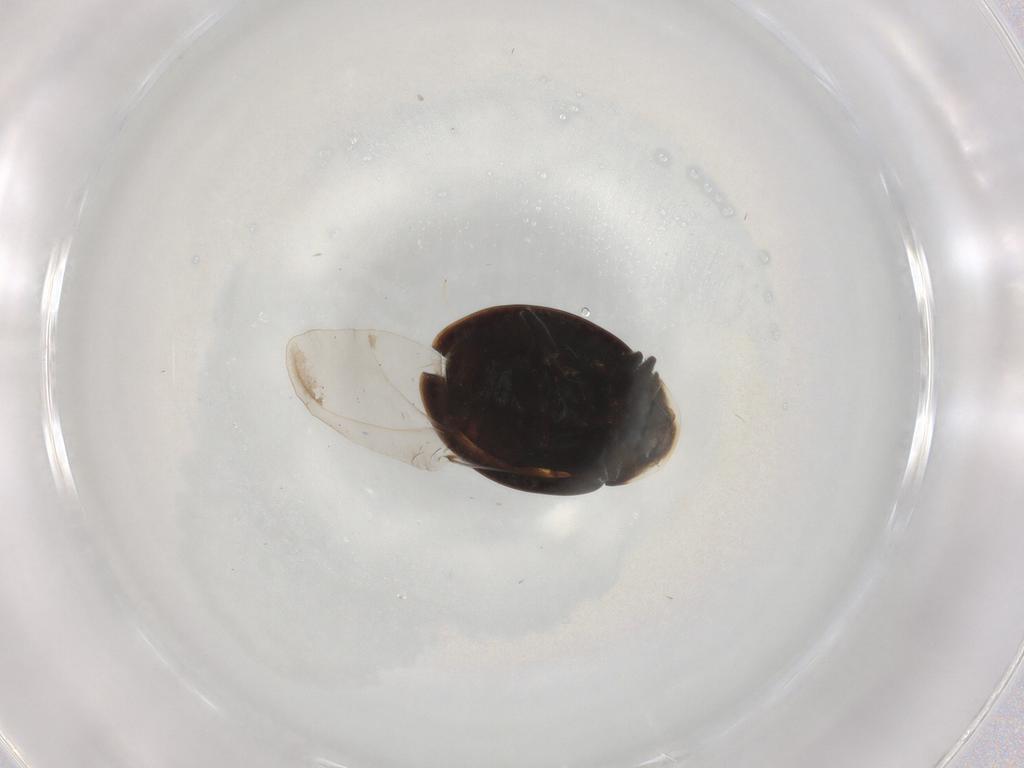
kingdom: Animalia
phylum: Arthropoda
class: Insecta
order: Coleoptera
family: Coccinellidae
